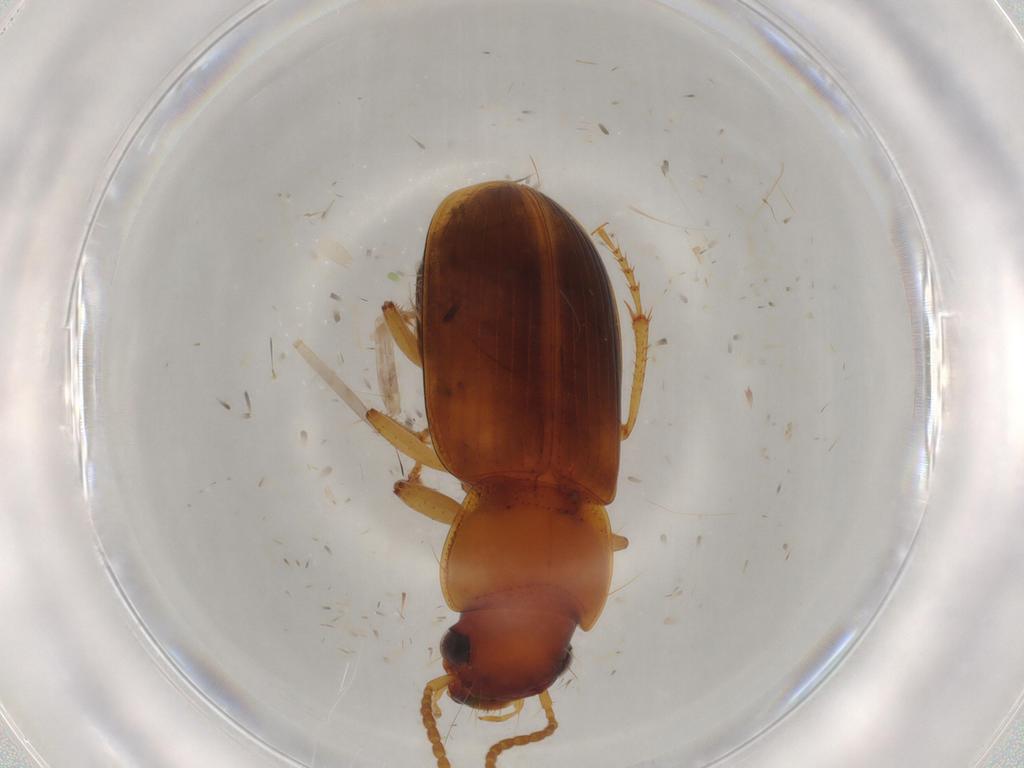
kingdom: Animalia
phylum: Arthropoda
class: Insecta
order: Coleoptera
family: Carabidae
